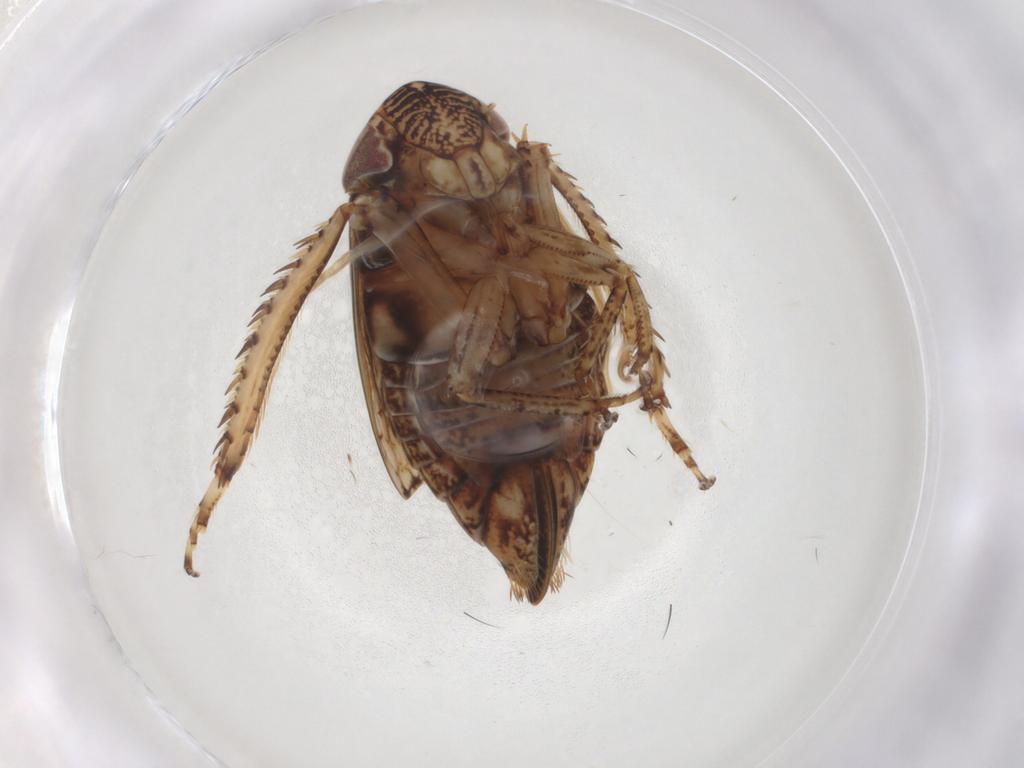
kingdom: Animalia
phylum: Arthropoda
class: Insecta
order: Hemiptera
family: Cicadellidae
